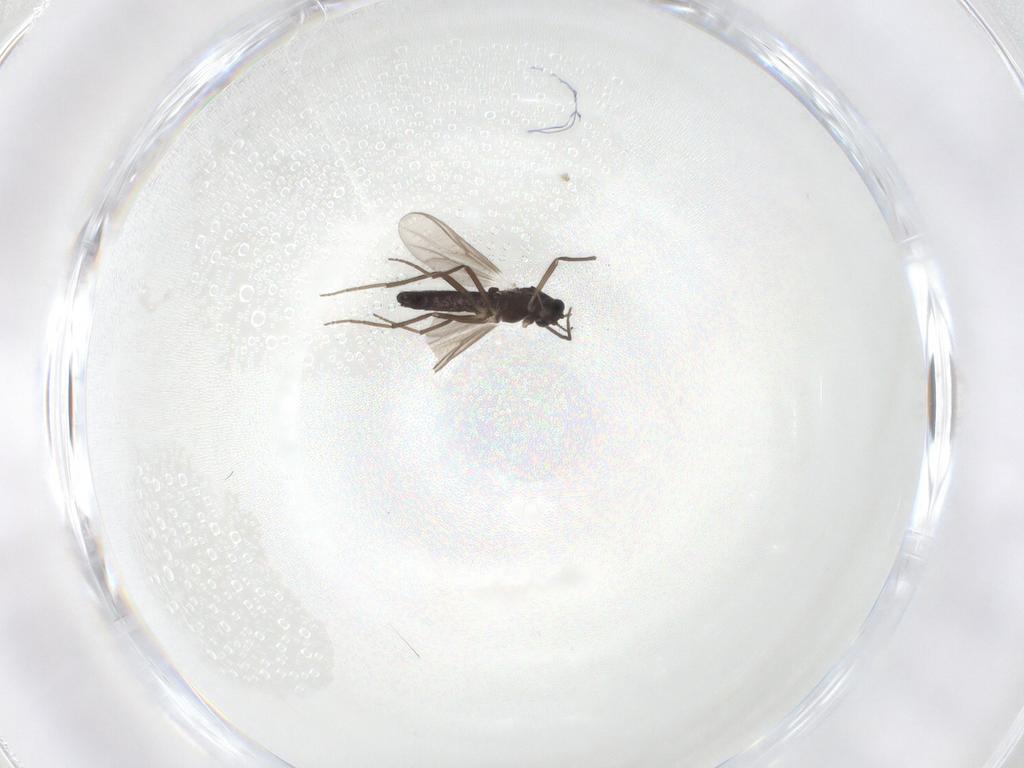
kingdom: Animalia
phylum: Arthropoda
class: Insecta
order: Diptera
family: Chironomidae
